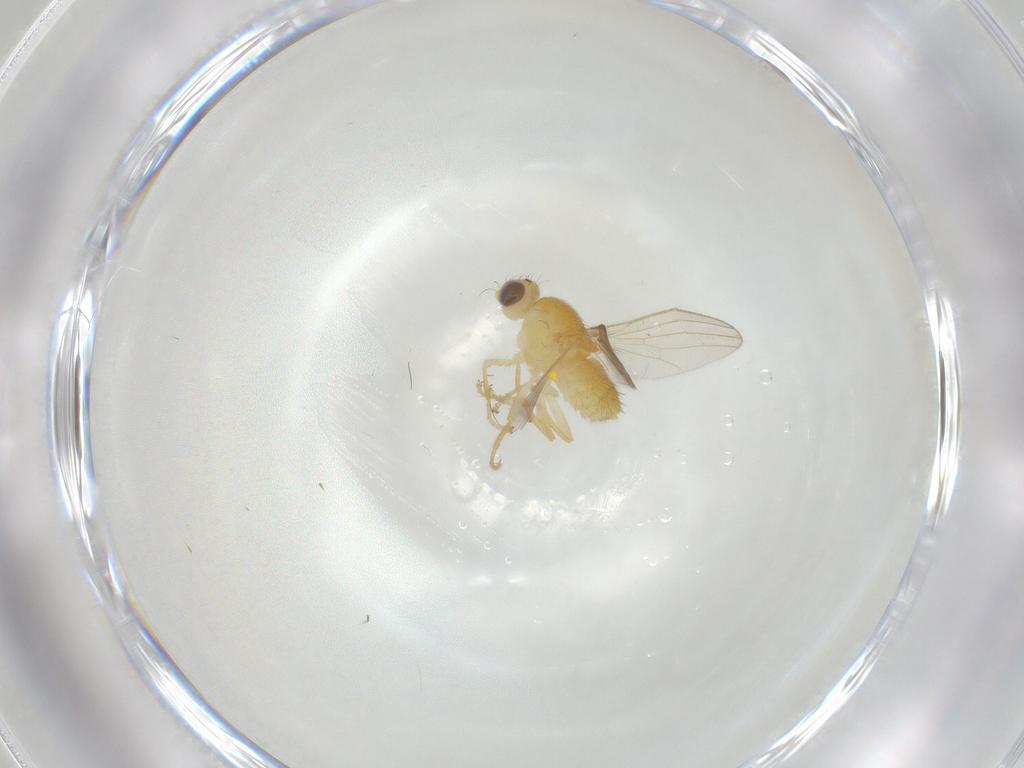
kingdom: Animalia
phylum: Arthropoda
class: Insecta
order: Diptera
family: Chyromyidae
